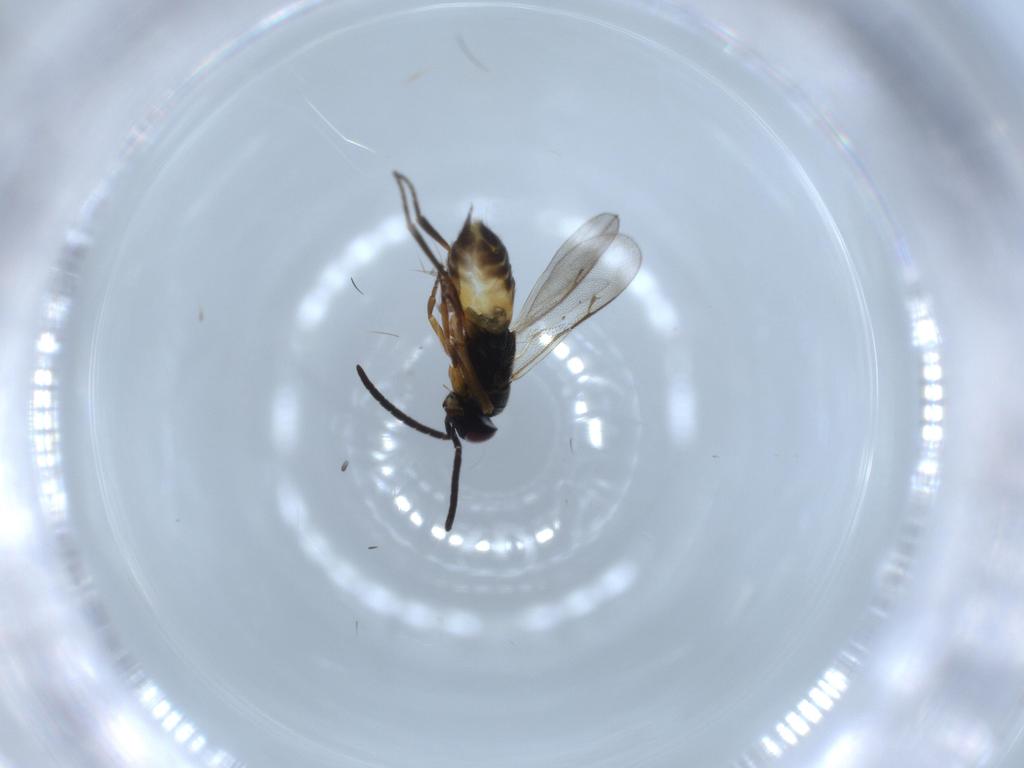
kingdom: Animalia
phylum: Arthropoda
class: Insecta
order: Hymenoptera
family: Encyrtidae
